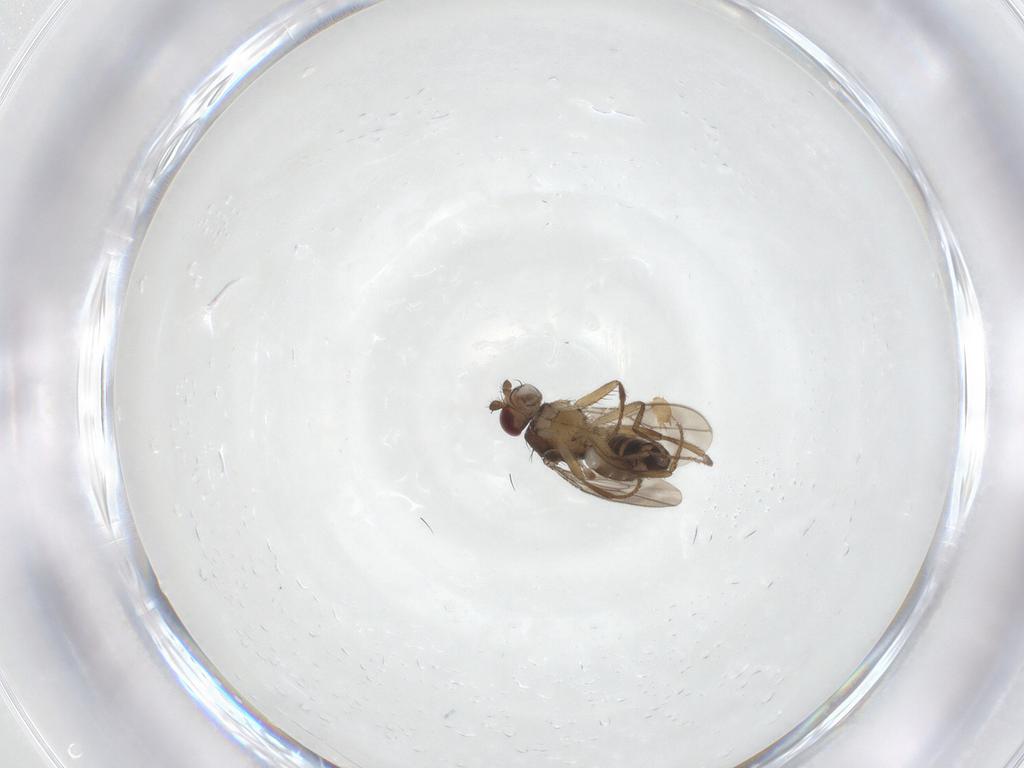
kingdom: Animalia
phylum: Arthropoda
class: Insecta
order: Diptera
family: Sphaeroceridae
